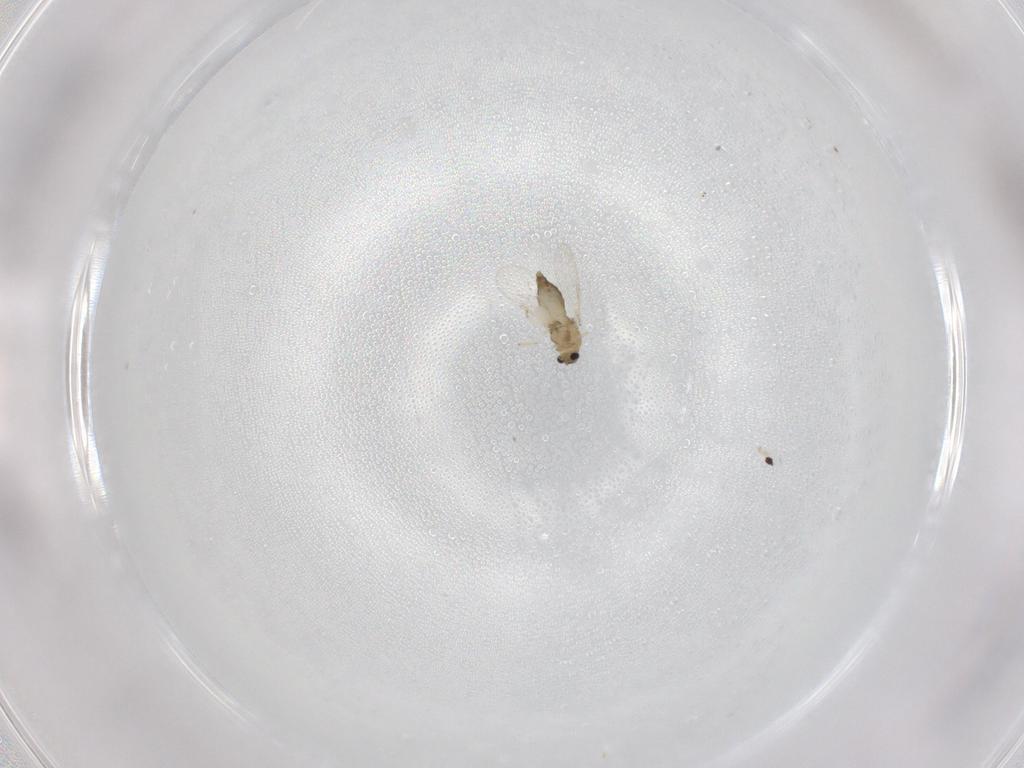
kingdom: Animalia
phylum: Arthropoda
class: Insecta
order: Diptera
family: Chironomidae
